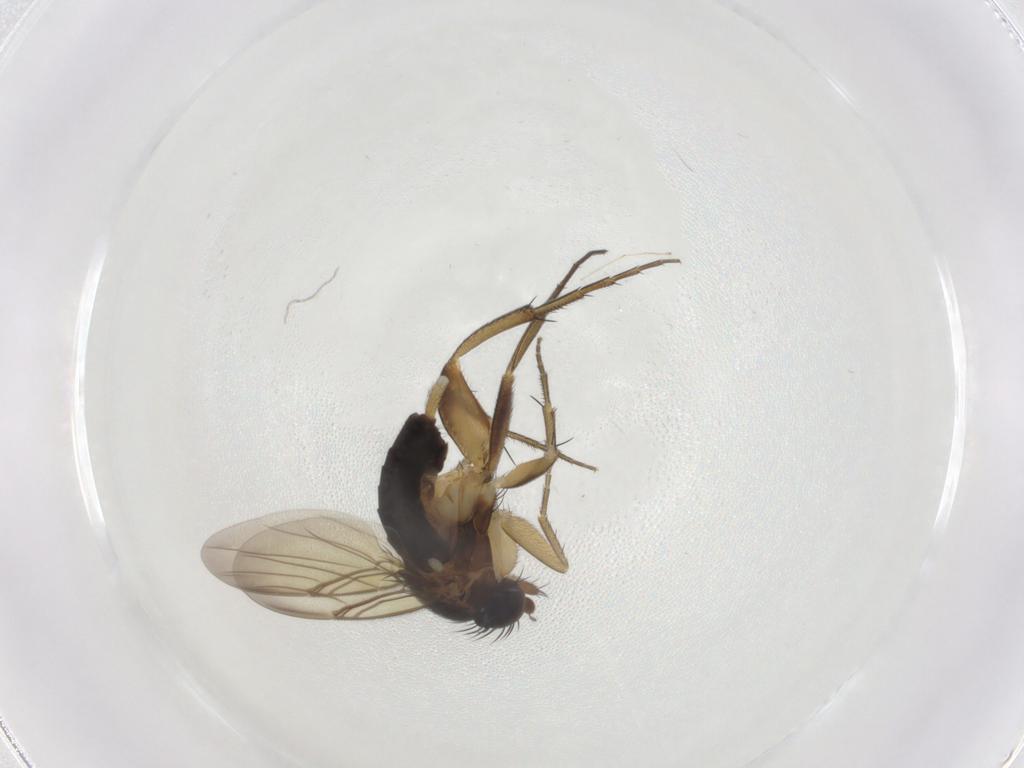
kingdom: Animalia
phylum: Arthropoda
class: Insecta
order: Diptera
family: Phoridae
